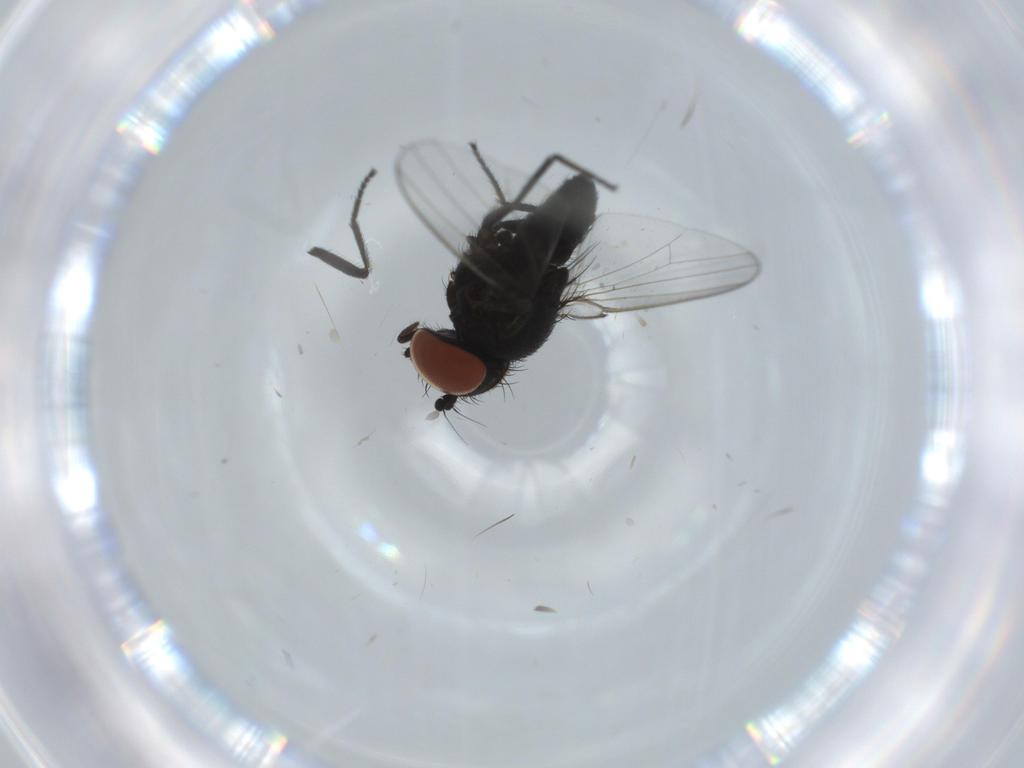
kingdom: Animalia
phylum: Arthropoda
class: Insecta
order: Diptera
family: Milichiidae
